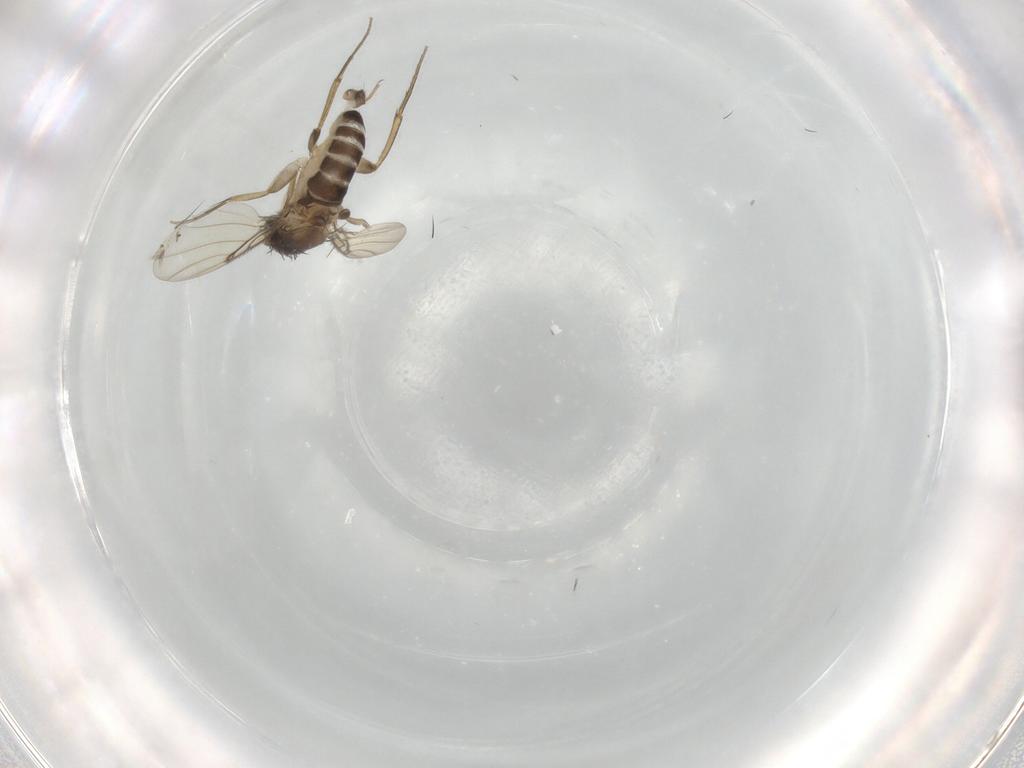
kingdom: Animalia
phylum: Arthropoda
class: Insecta
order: Diptera
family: Phoridae
